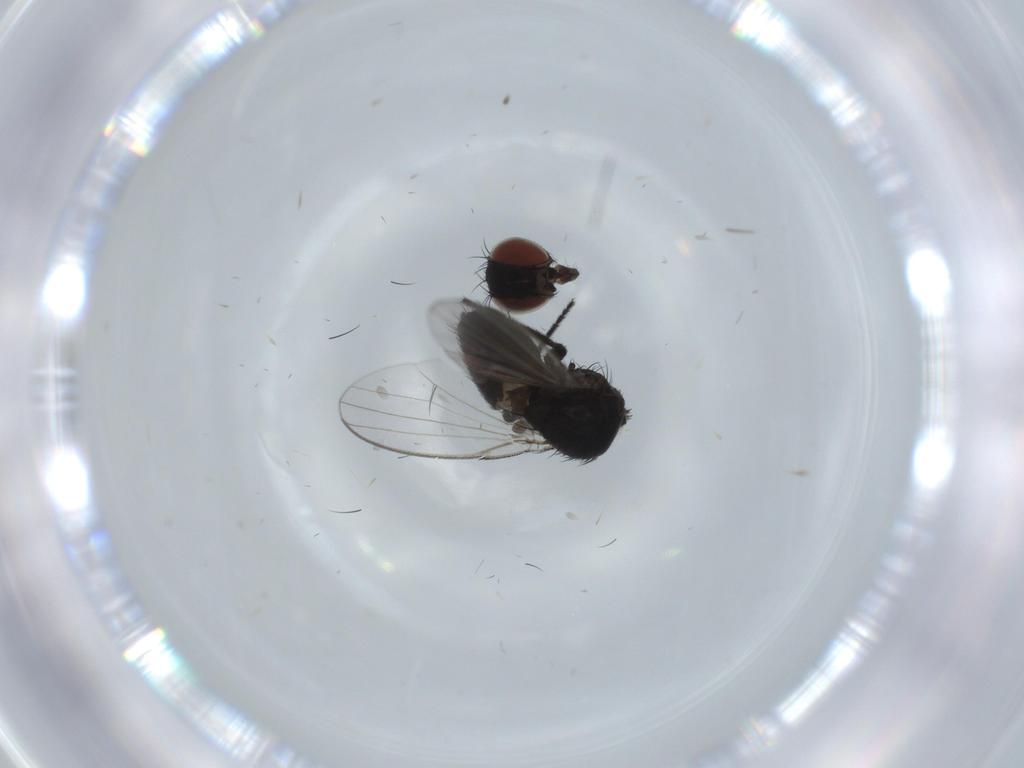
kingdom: Animalia
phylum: Arthropoda
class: Insecta
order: Diptera
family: Milichiidae
